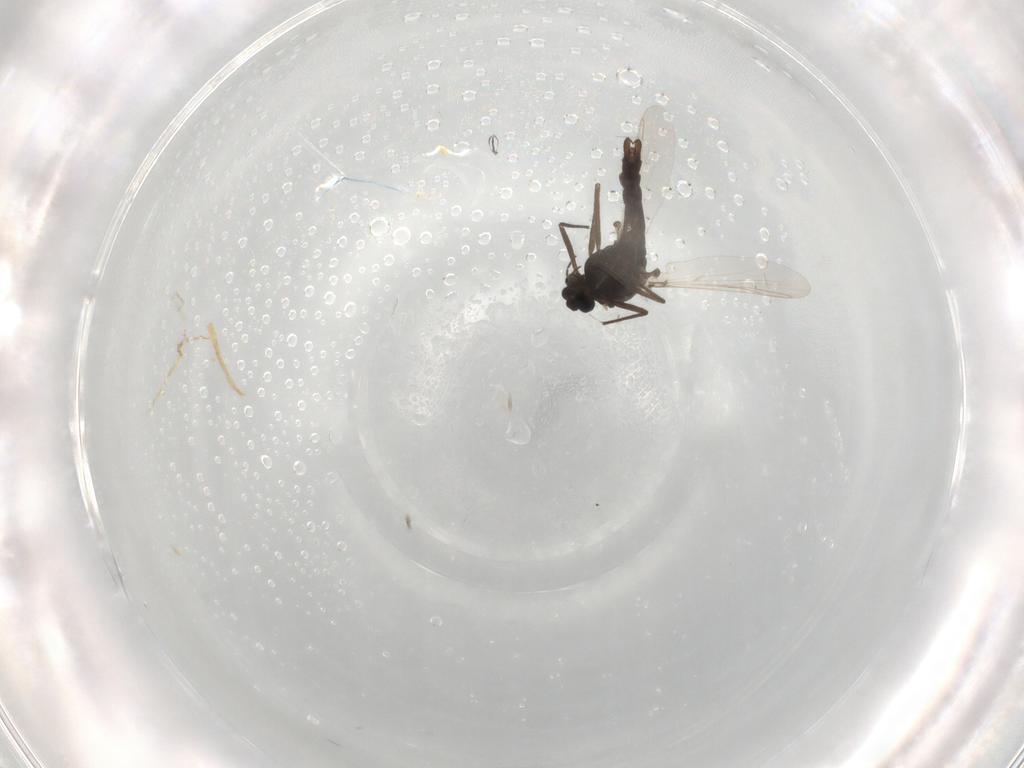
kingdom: Animalia
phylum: Arthropoda
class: Insecta
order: Diptera
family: Chironomidae
